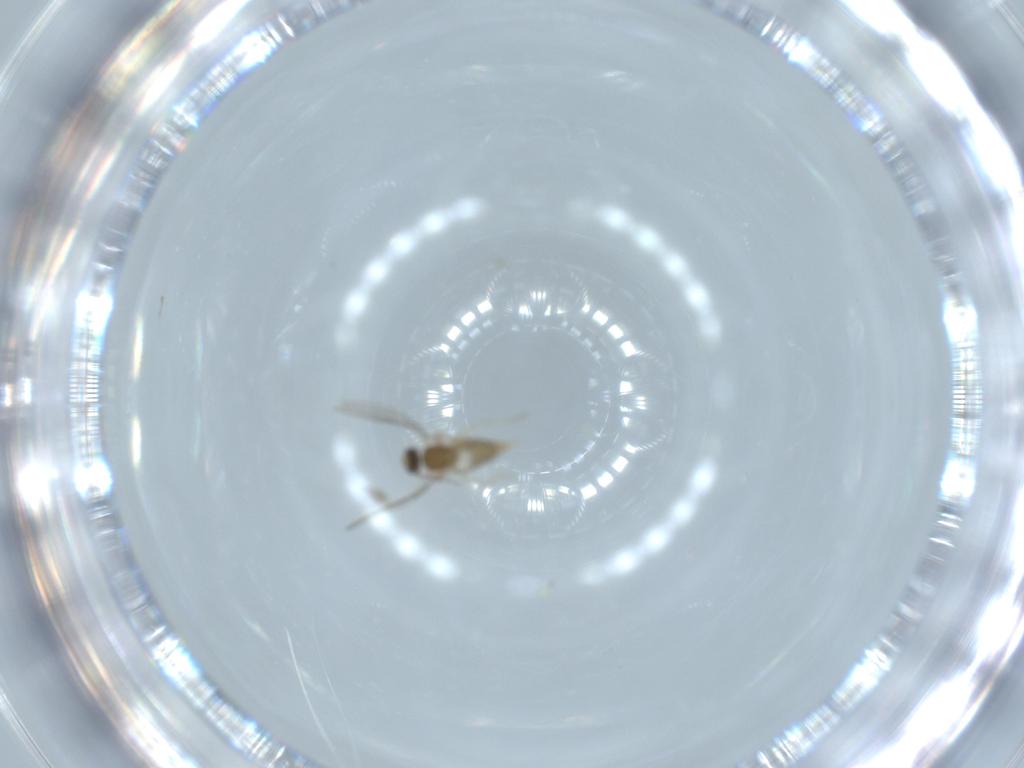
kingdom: Animalia
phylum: Arthropoda
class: Insecta
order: Diptera
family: Cecidomyiidae
